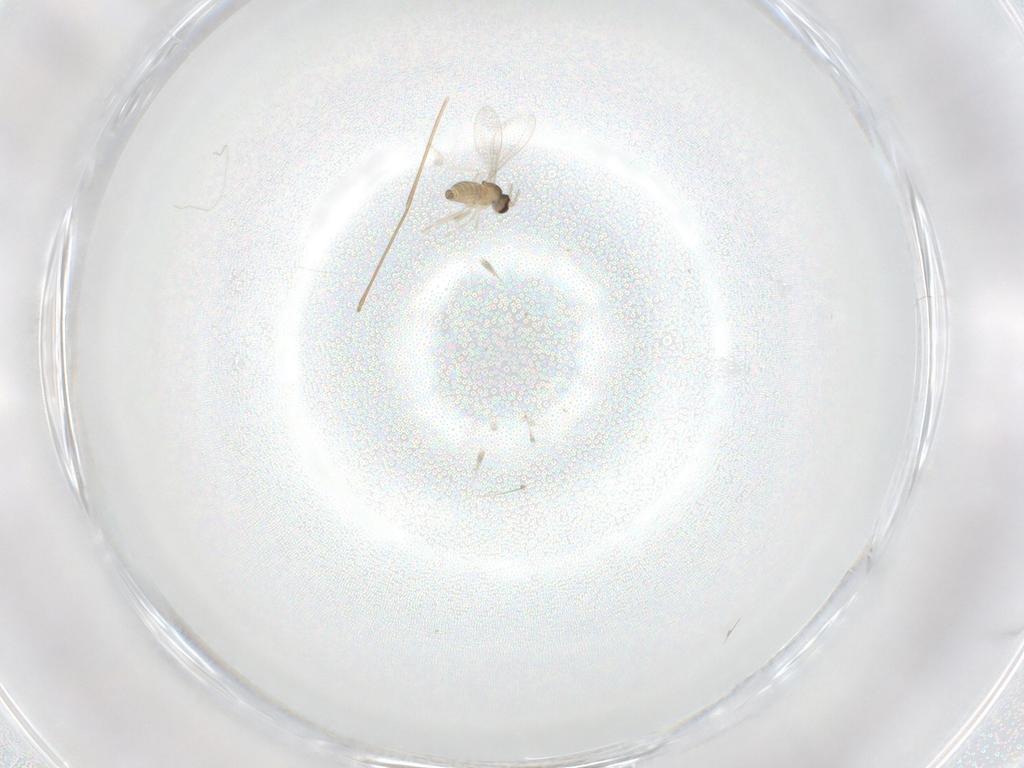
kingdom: Animalia
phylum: Arthropoda
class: Insecta
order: Diptera
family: Cecidomyiidae
